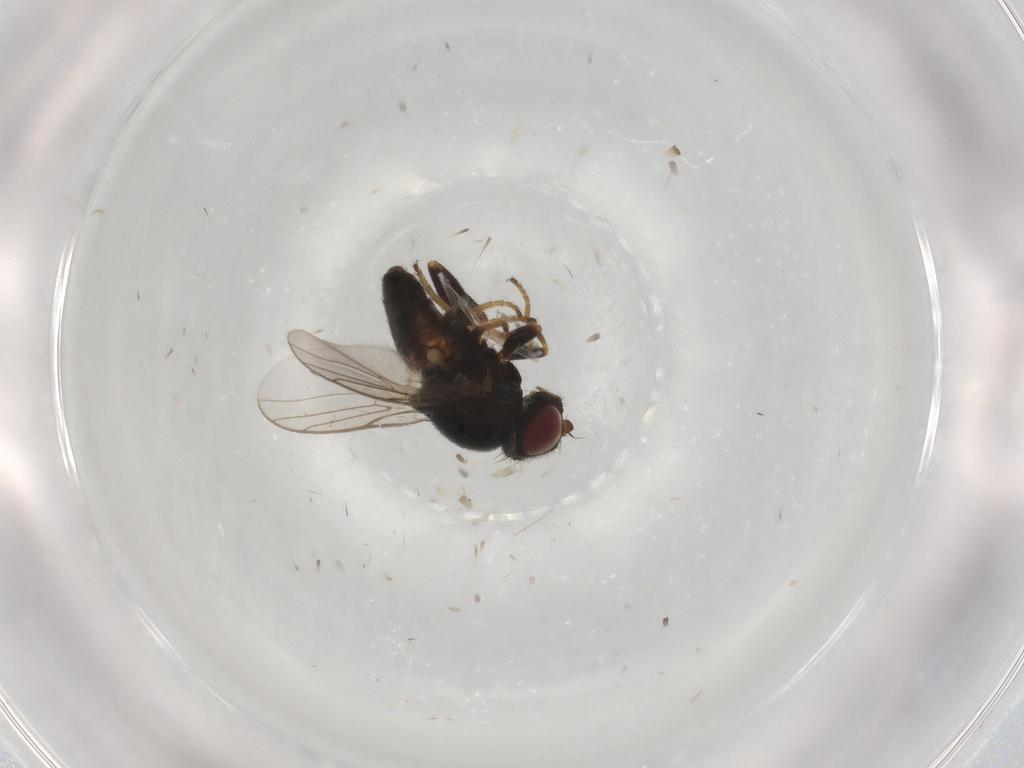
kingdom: Animalia
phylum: Arthropoda
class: Insecta
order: Diptera
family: Chloropidae
